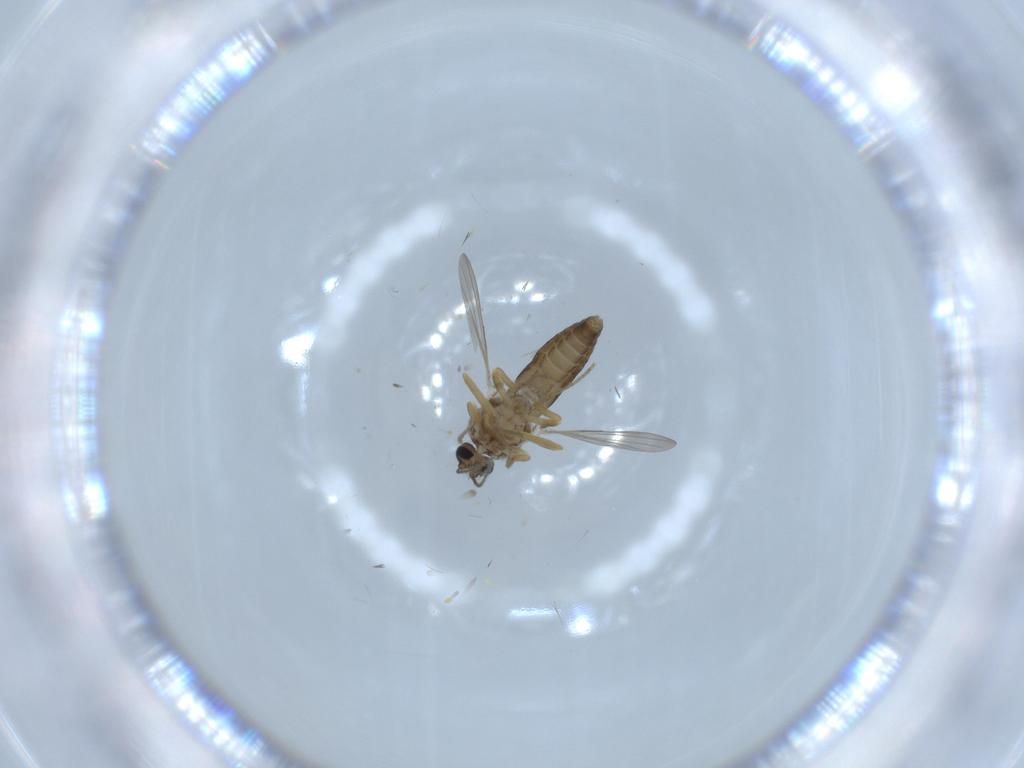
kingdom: Animalia
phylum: Arthropoda
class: Insecta
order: Diptera
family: Ceratopogonidae
